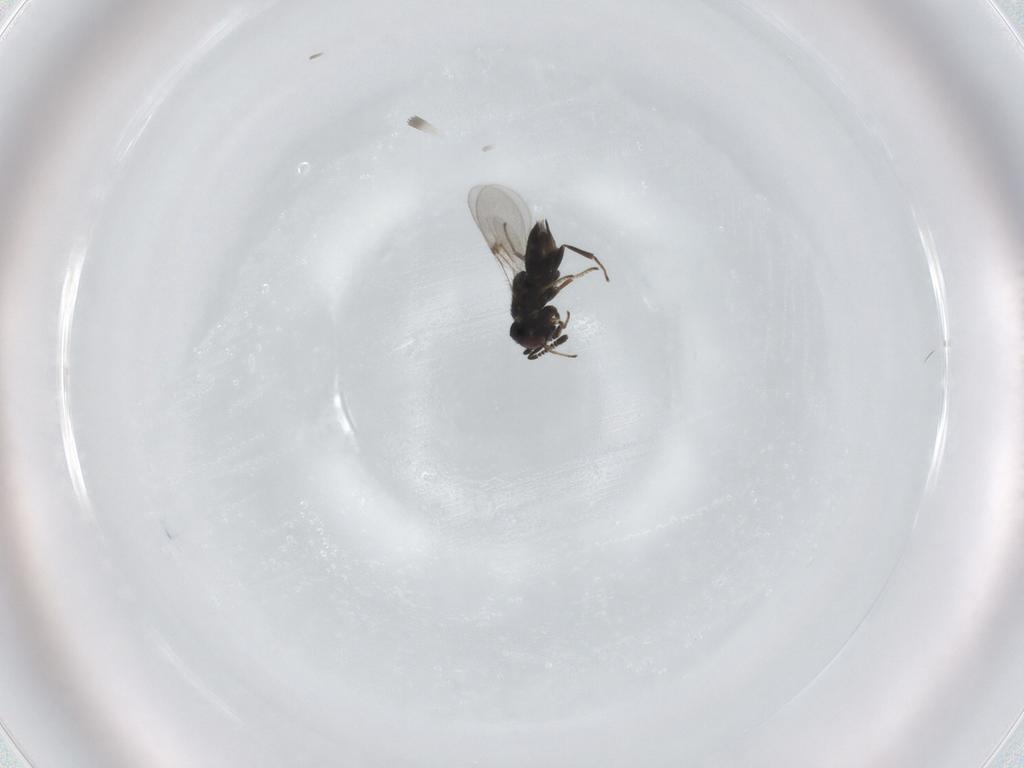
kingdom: Animalia
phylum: Arthropoda
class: Insecta
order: Hymenoptera
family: Encyrtidae
